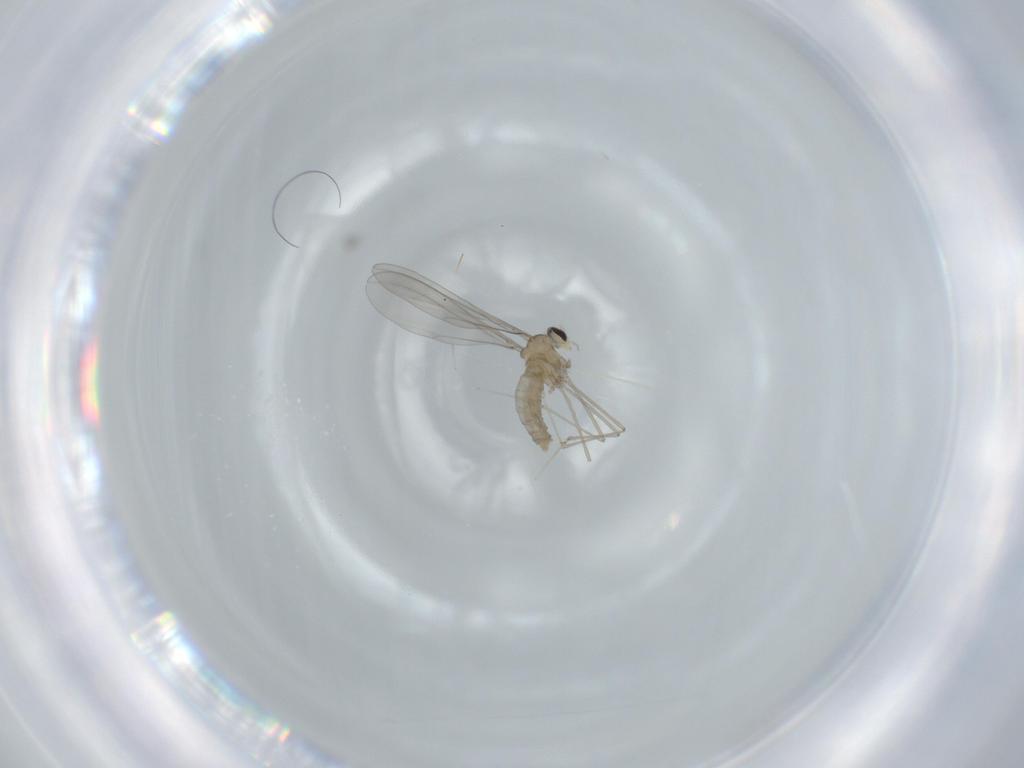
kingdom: Animalia
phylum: Arthropoda
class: Insecta
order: Diptera
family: Cecidomyiidae
